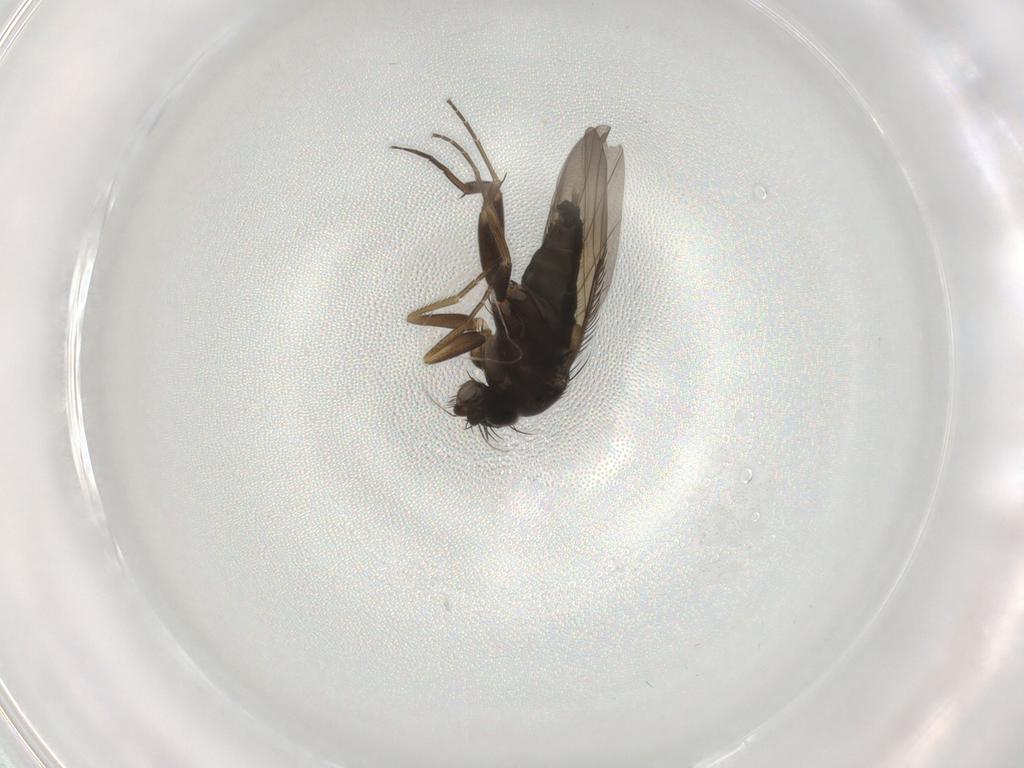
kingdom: Animalia
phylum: Arthropoda
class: Insecta
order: Diptera
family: Phoridae
